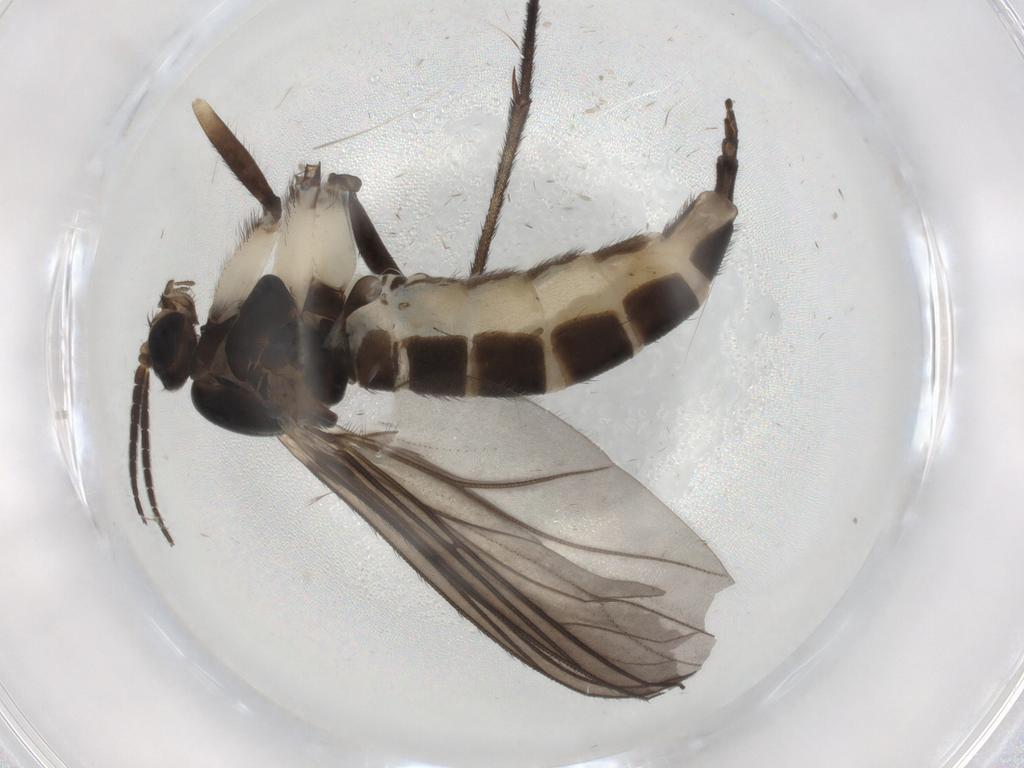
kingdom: Animalia
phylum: Arthropoda
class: Insecta
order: Diptera
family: Sciaridae
